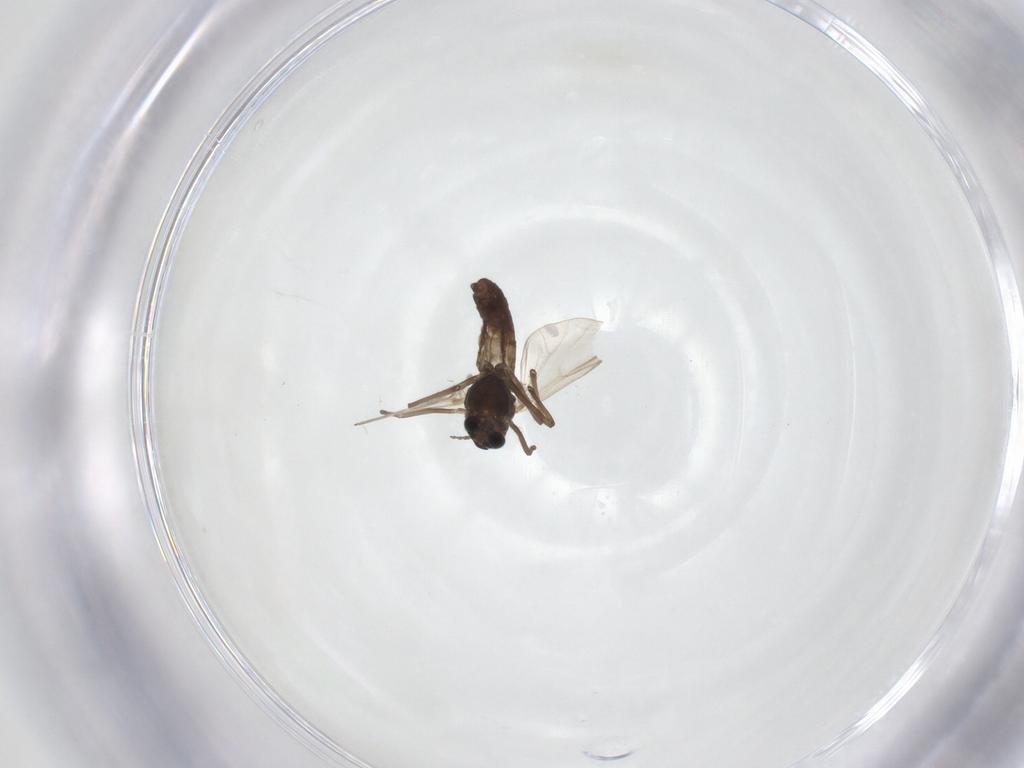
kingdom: Animalia
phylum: Arthropoda
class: Insecta
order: Diptera
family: Chironomidae
